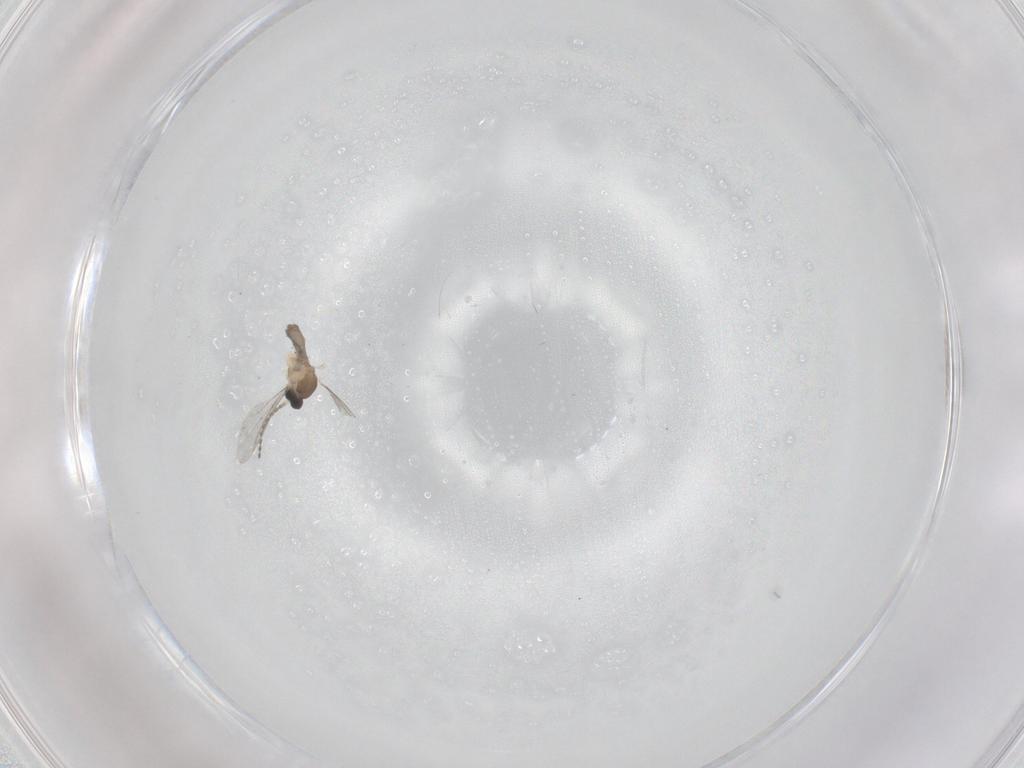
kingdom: Animalia
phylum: Arthropoda
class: Insecta
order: Diptera
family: Cecidomyiidae
